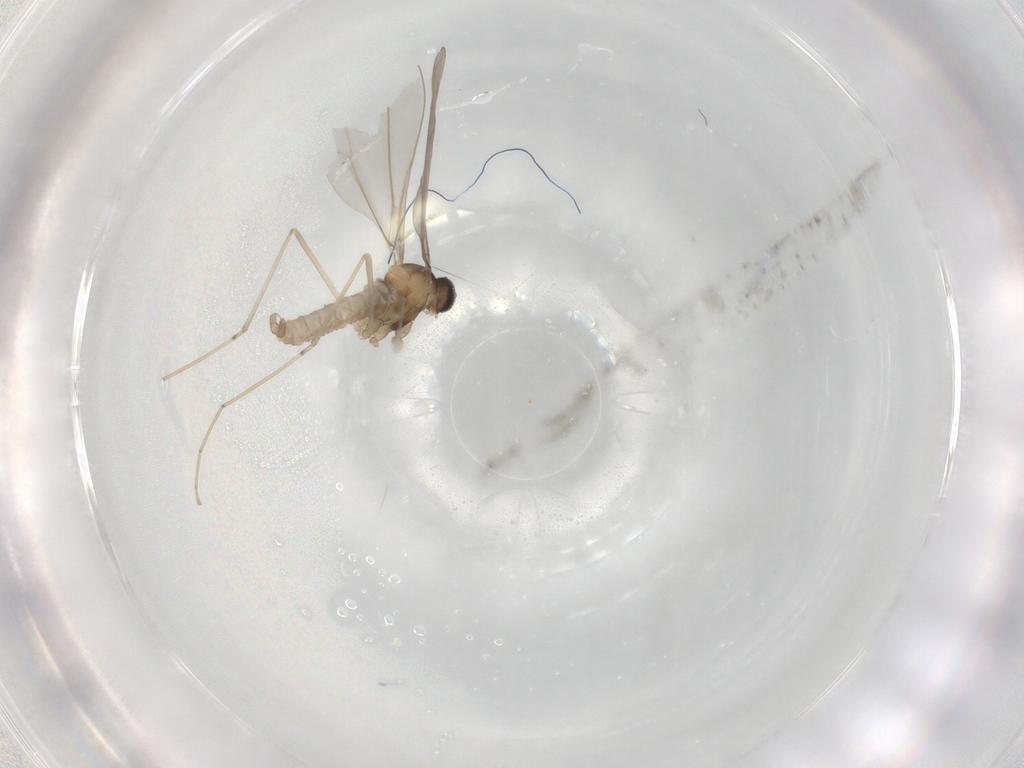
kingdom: Animalia
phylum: Arthropoda
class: Insecta
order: Diptera
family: Cecidomyiidae
